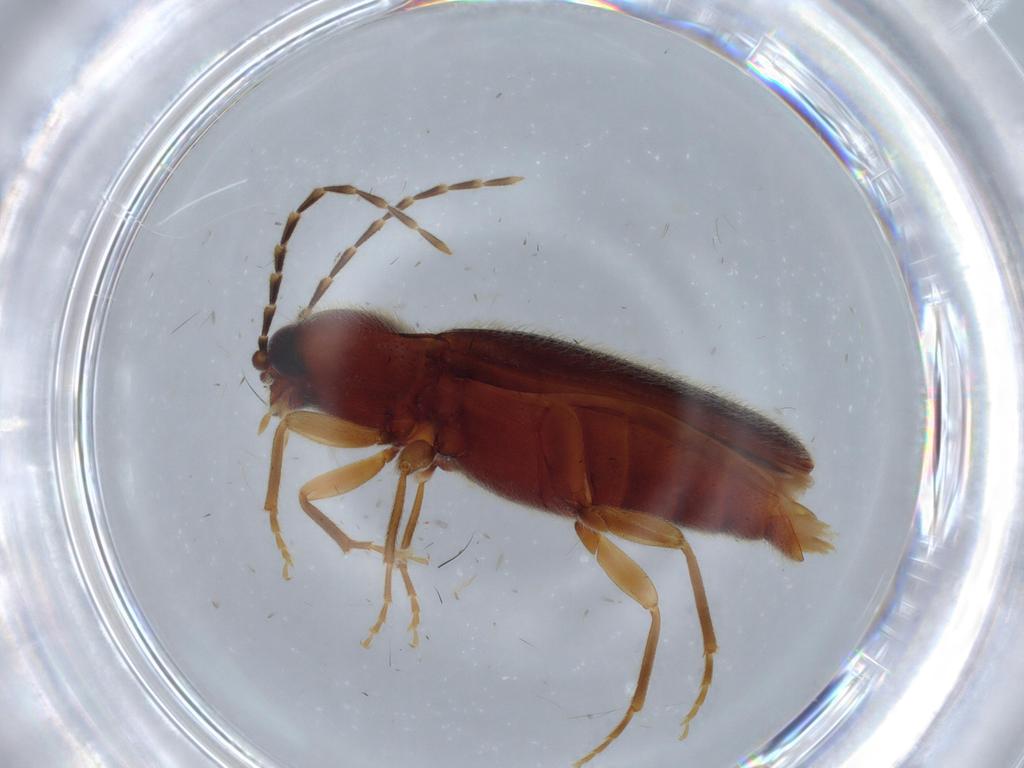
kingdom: Animalia
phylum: Arthropoda
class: Insecta
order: Coleoptera
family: Elateridae
